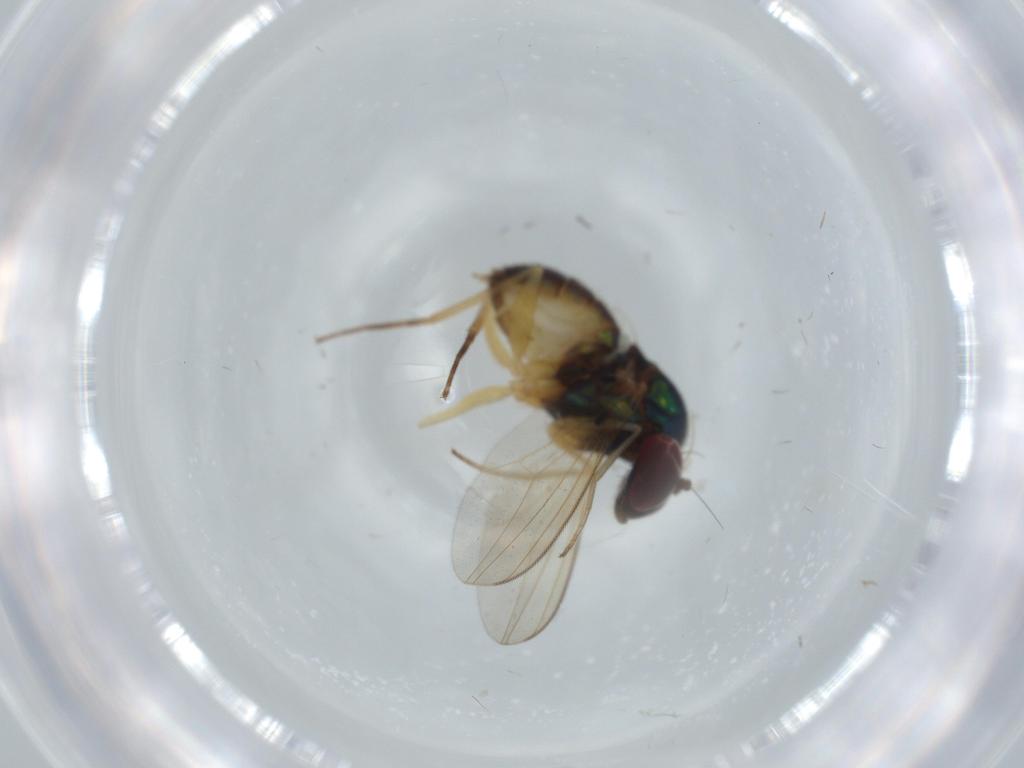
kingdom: Animalia
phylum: Arthropoda
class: Insecta
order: Diptera
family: Dolichopodidae
